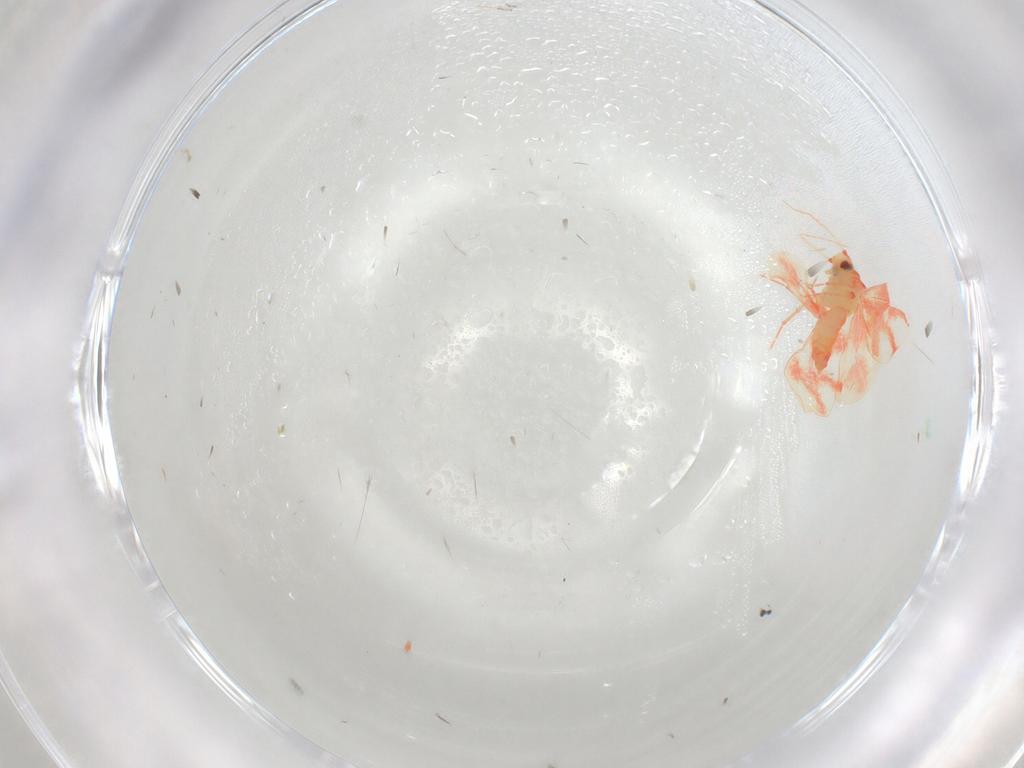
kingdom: Animalia
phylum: Arthropoda
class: Insecta
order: Hemiptera
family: Aleyrodidae
